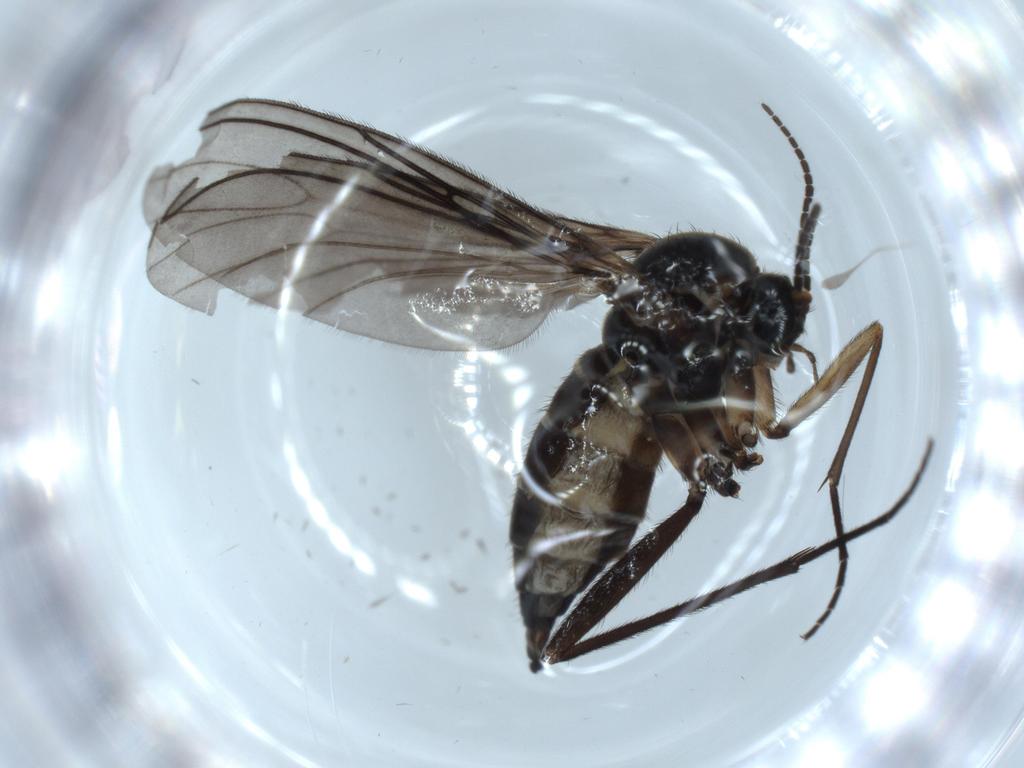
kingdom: Animalia
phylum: Arthropoda
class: Insecta
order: Diptera
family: Sciaridae
